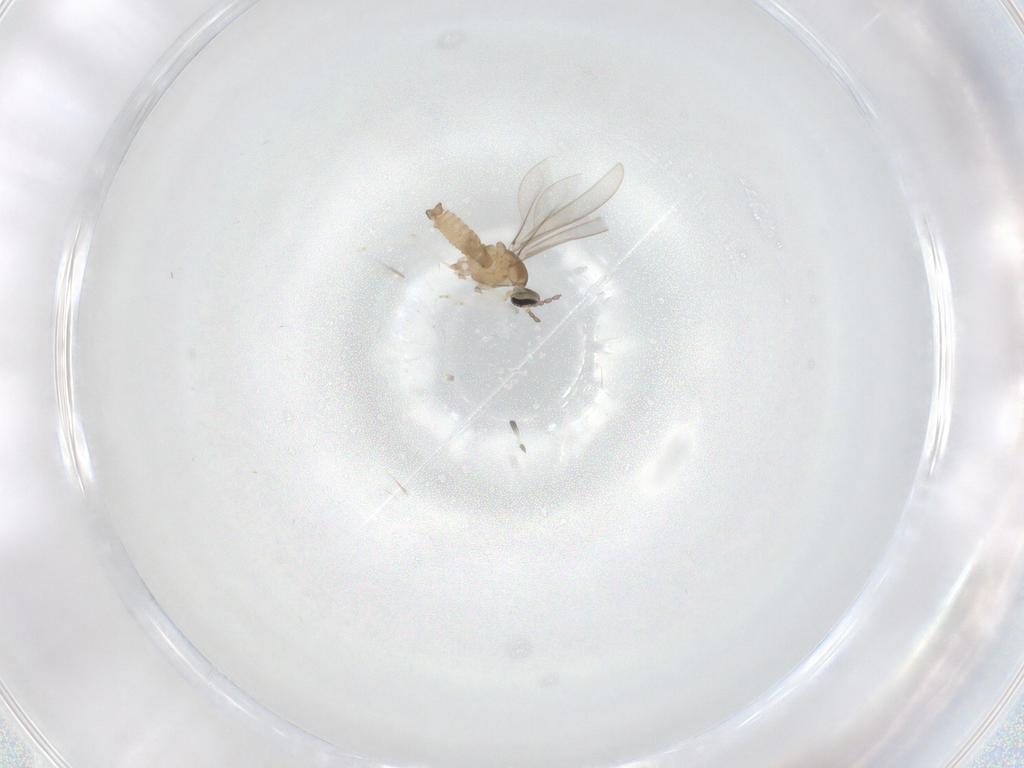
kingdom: Animalia
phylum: Arthropoda
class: Insecta
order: Diptera
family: Cecidomyiidae
